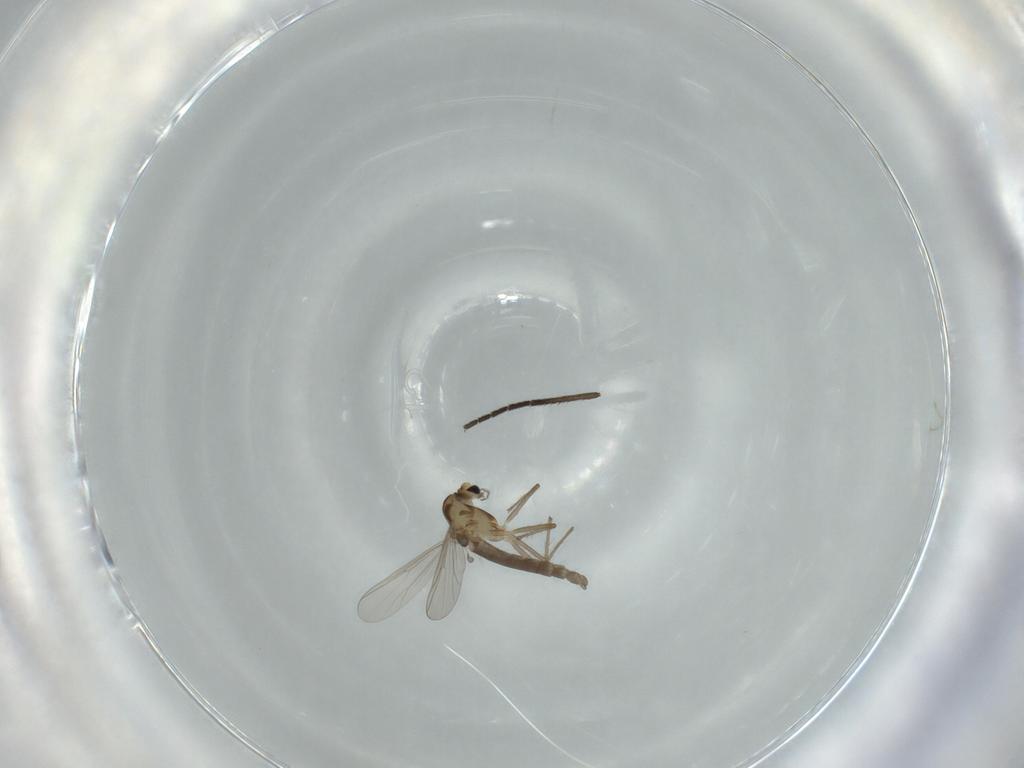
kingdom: Animalia
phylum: Arthropoda
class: Insecta
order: Diptera
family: Chironomidae
